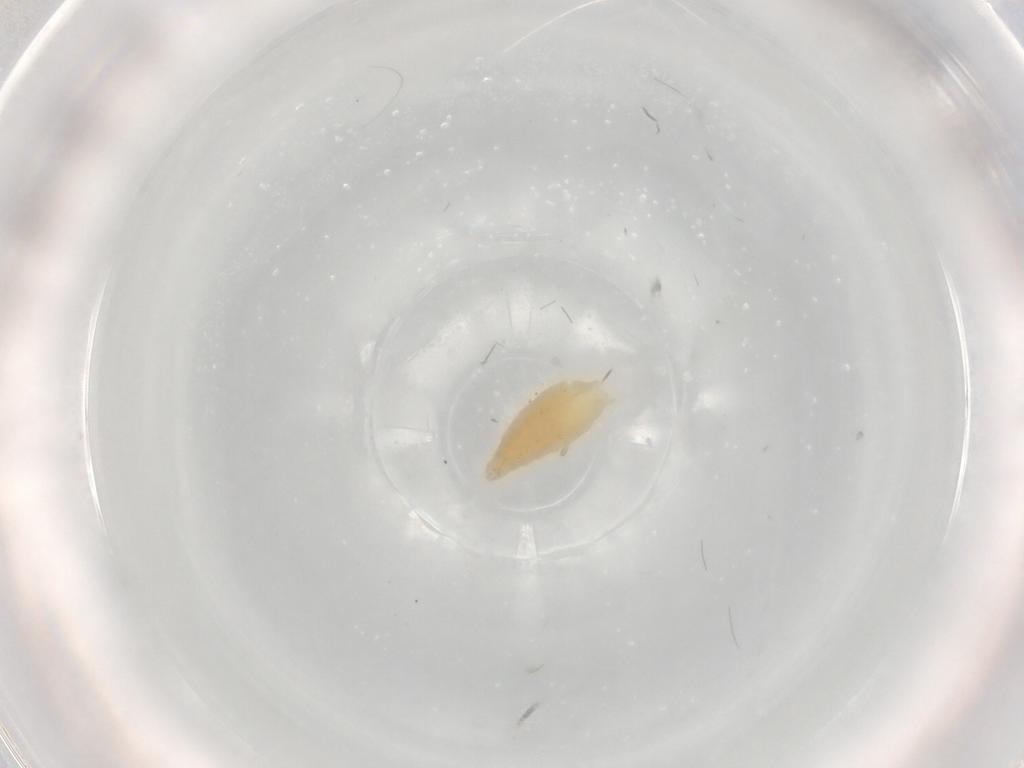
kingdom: Animalia
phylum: Arthropoda
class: Insecta
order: Diptera
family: Chironomidae
